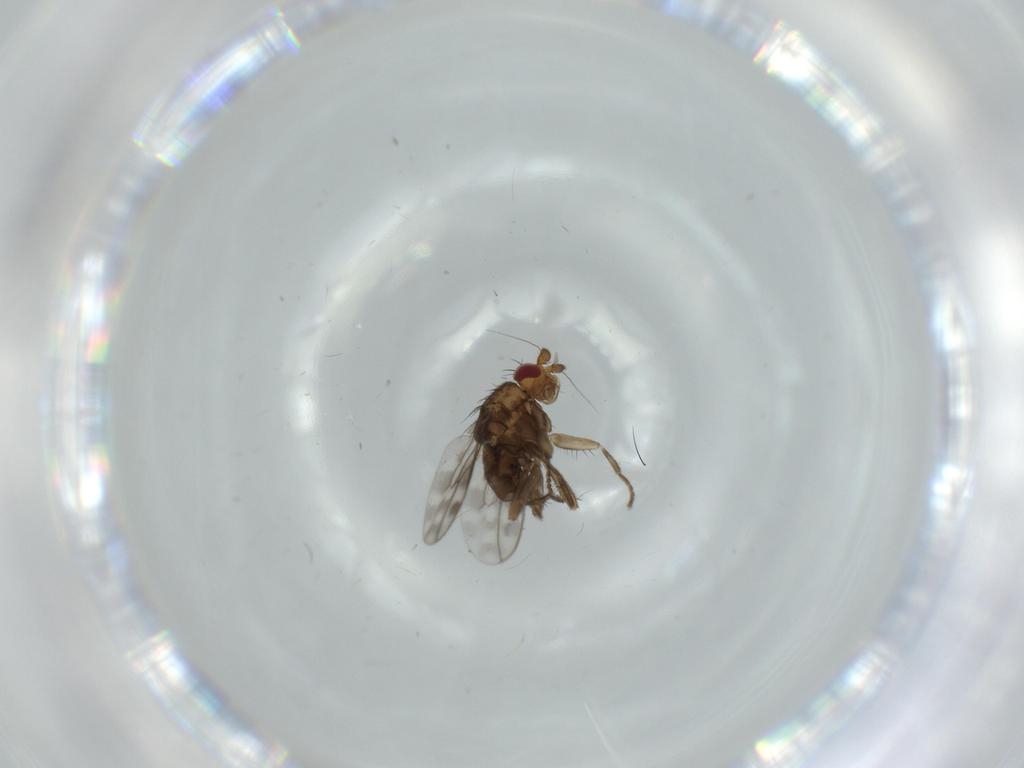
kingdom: Animalia
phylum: Arthropoda
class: Insecta
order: Diptera
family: Sphaeroceridae
